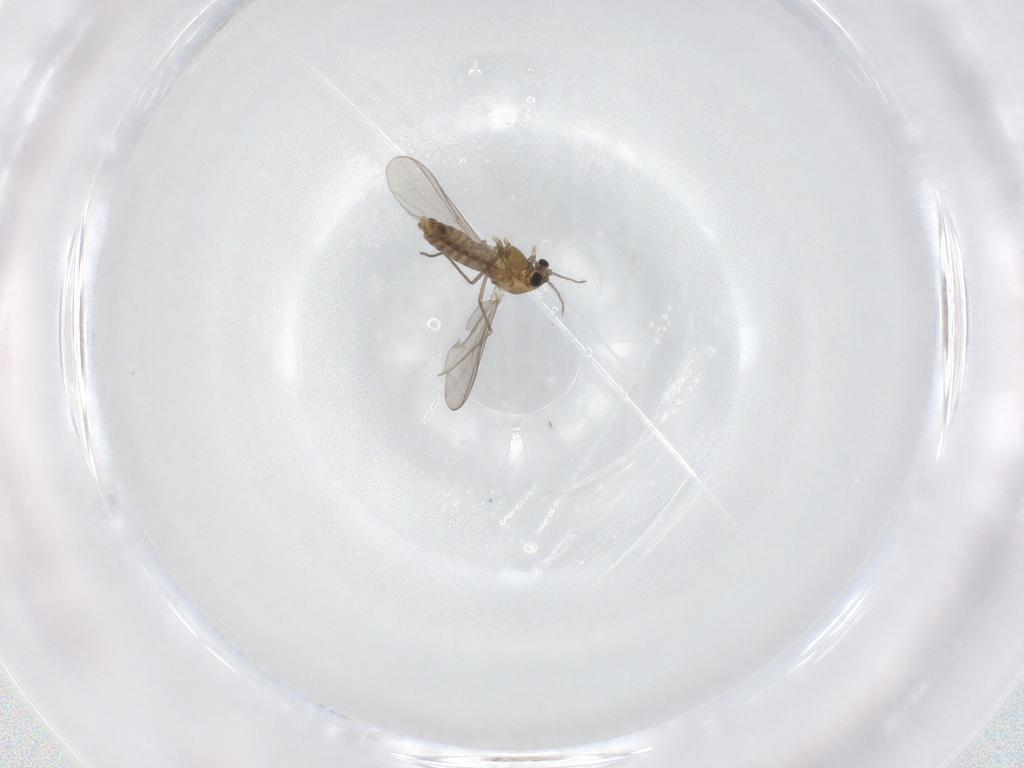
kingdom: Animalia
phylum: Arthropoda
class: Insecta
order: Diptera
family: Chironomidae
